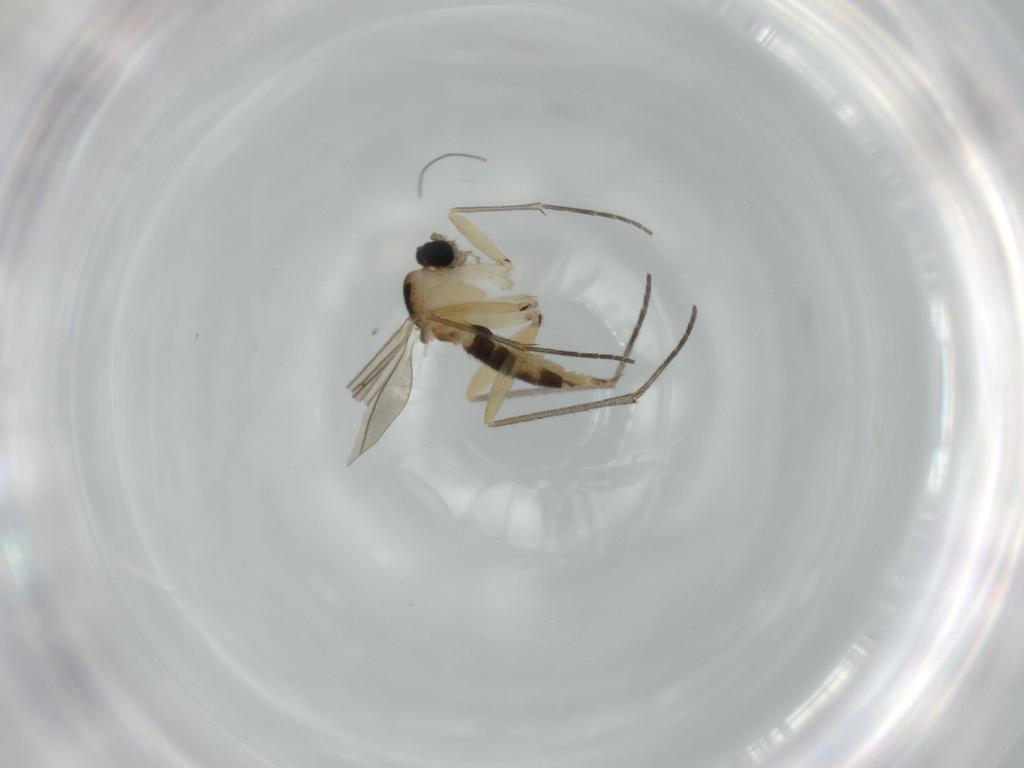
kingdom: Animalia
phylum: Arthropoda
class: Insecta
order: Diptera
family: Sciaridae
